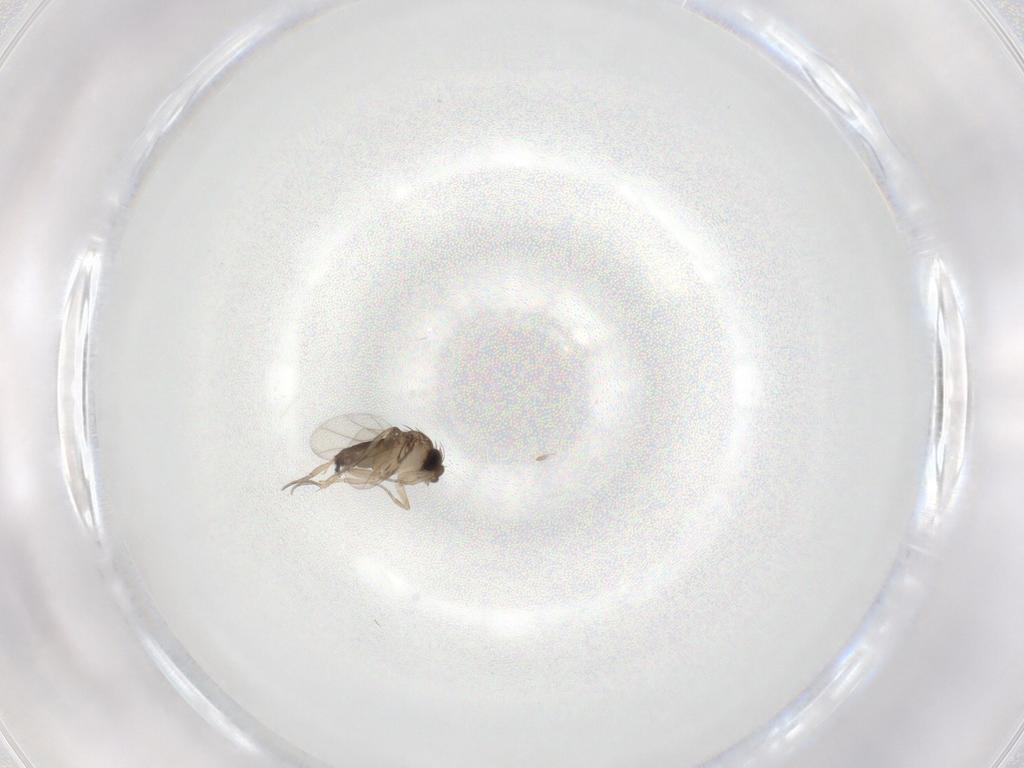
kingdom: Animalia
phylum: Arthropoda
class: Insecta
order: Diptera
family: Phoridae
